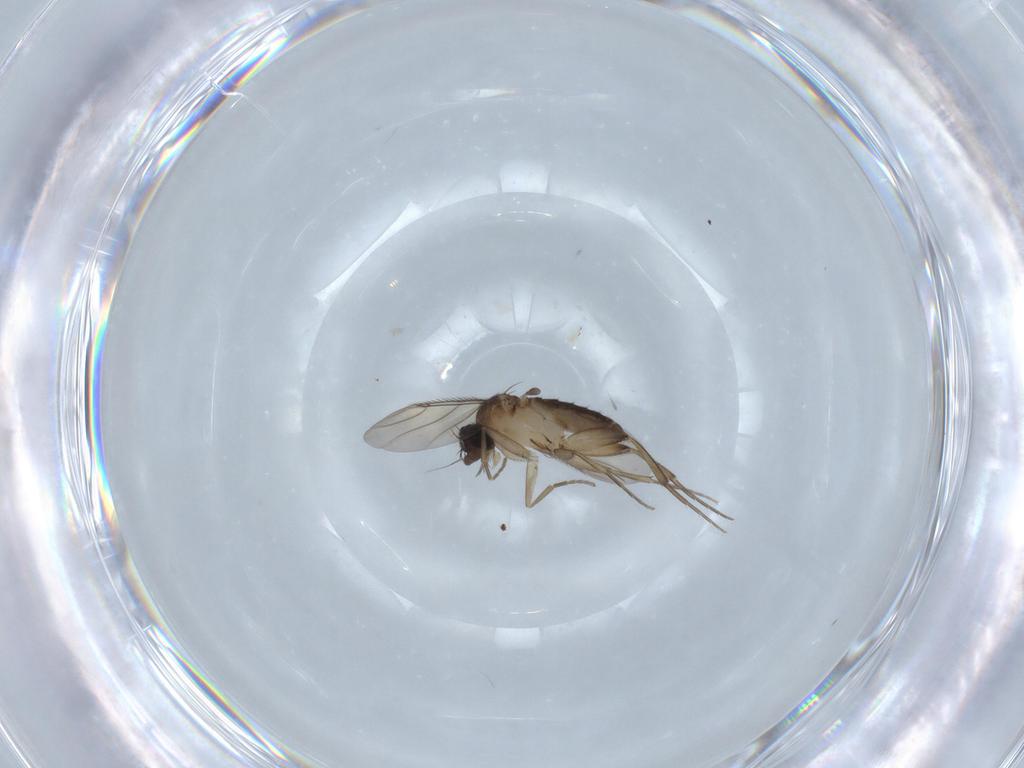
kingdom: Animalia
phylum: Arthropoda
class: Insecta
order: Diptera
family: Phoridae
